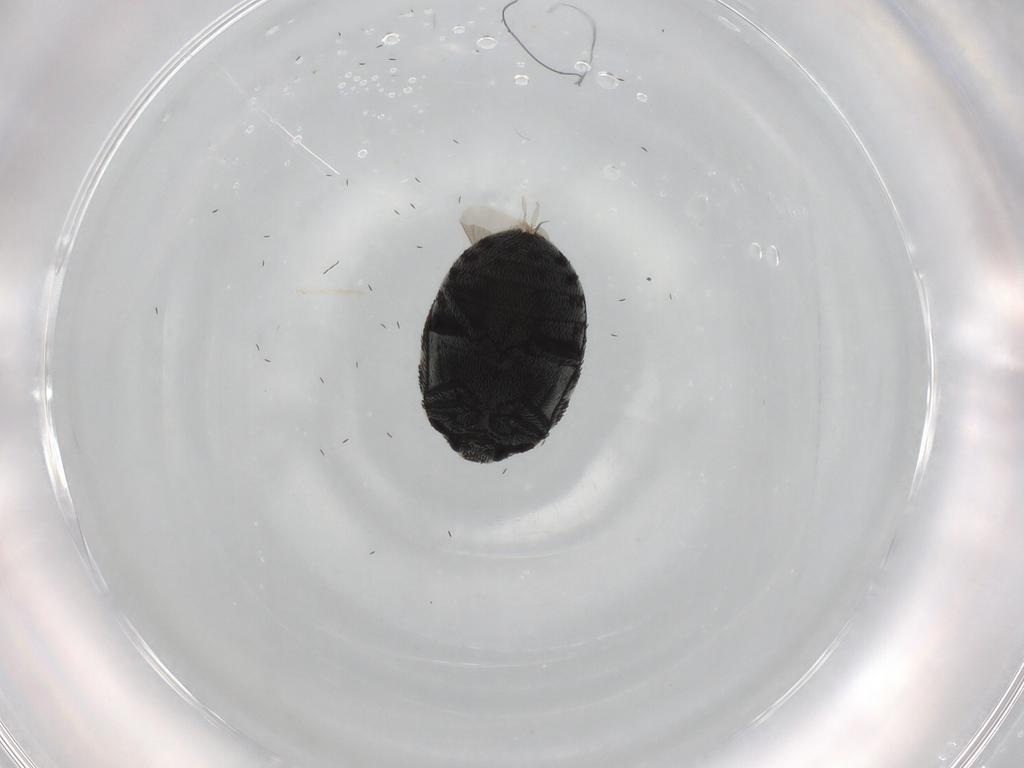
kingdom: Animalia
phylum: Arthropoda
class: Insecta
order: Coleoptera
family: Dermestidae
